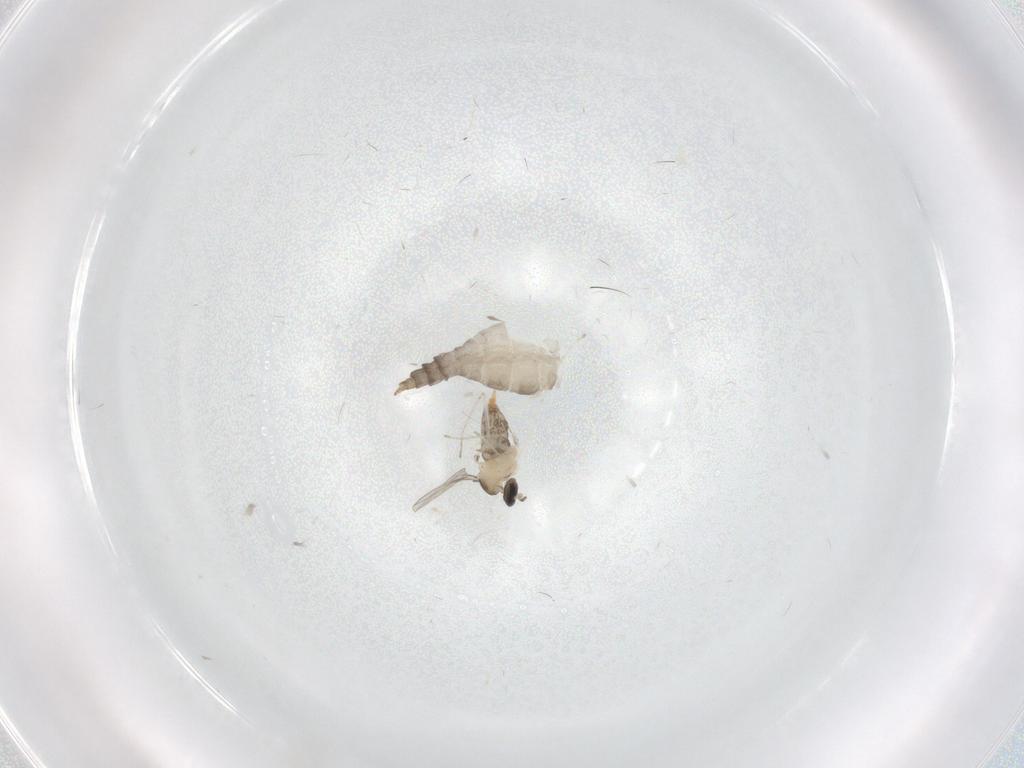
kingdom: Animalia
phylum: Arthropoda
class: Insecta
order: Diptera
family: Cecidomyiidae
